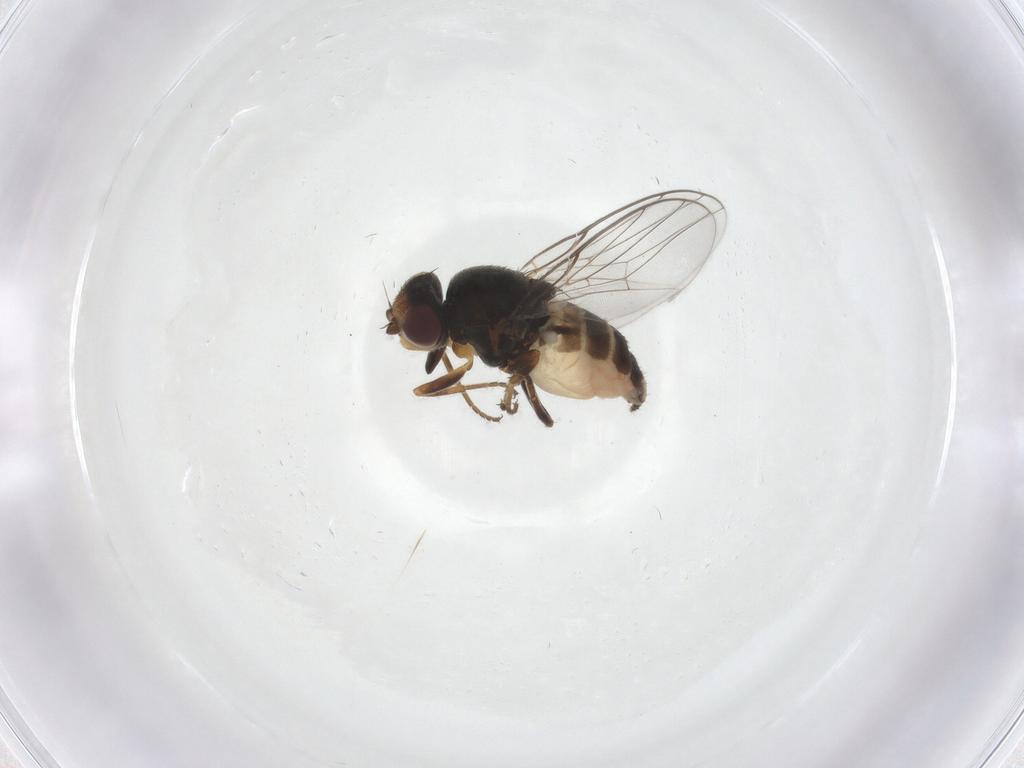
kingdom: Animalia
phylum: Arthropoda
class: Insecta
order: Diptera
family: Chloropidae
